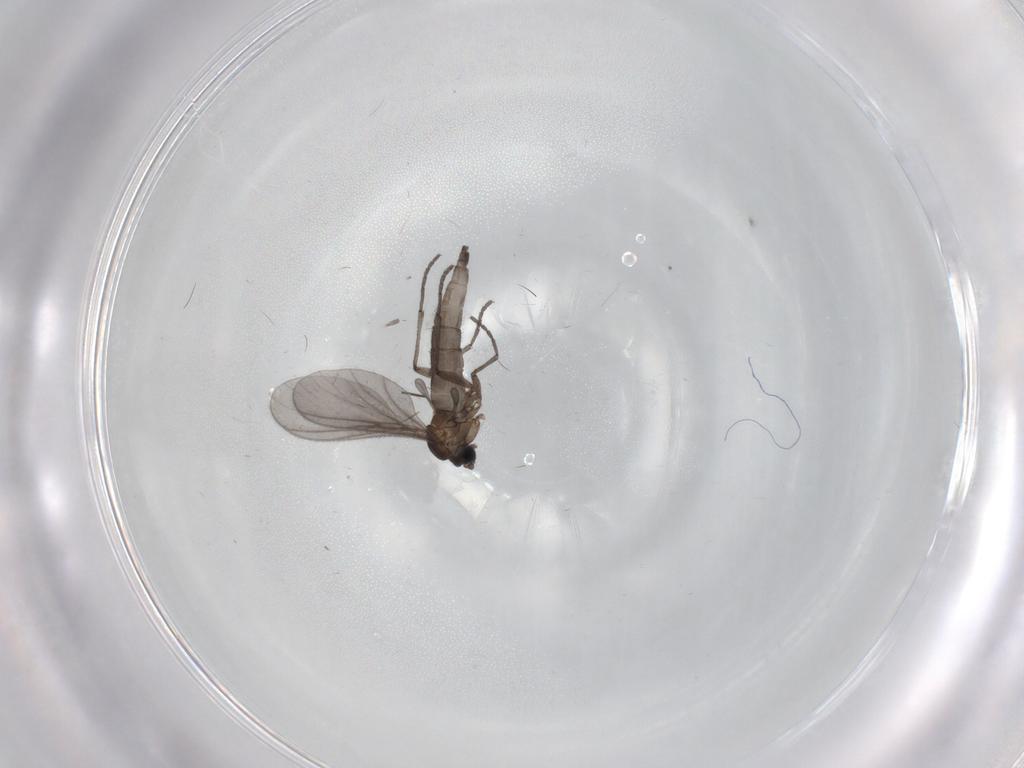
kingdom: Animalia
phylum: Arthropoda
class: Insecta
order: Diptera
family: Sciaridae
